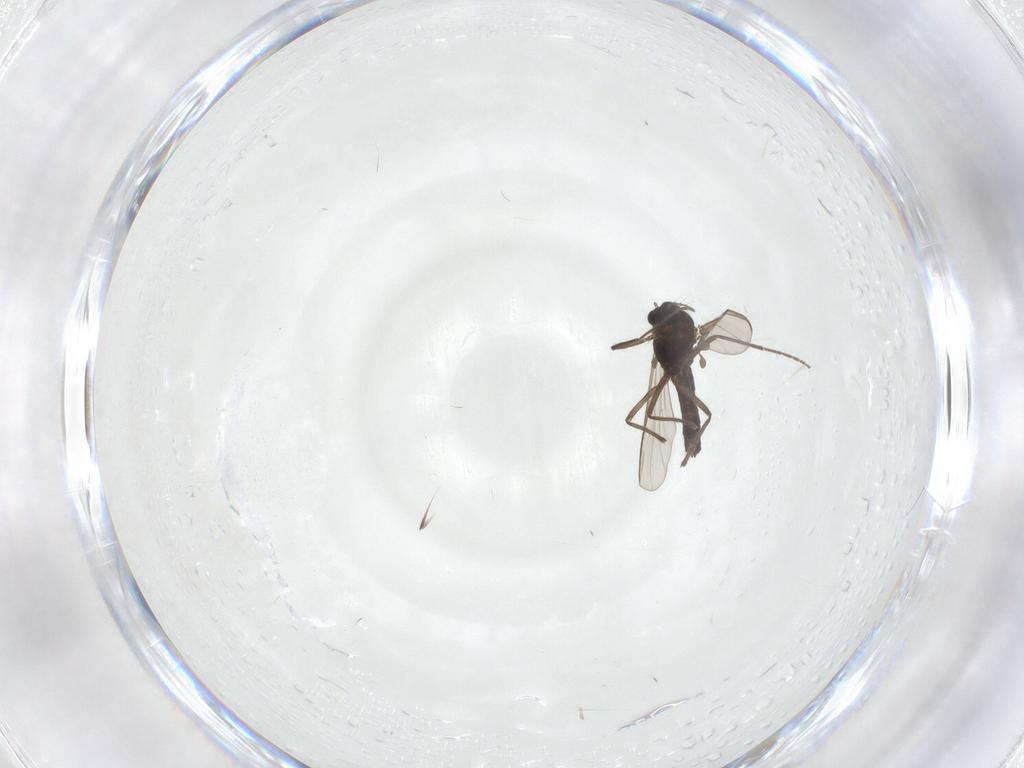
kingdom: Animalia
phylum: Arthropoda
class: Insecta
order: Diptera
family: Chironomidae
